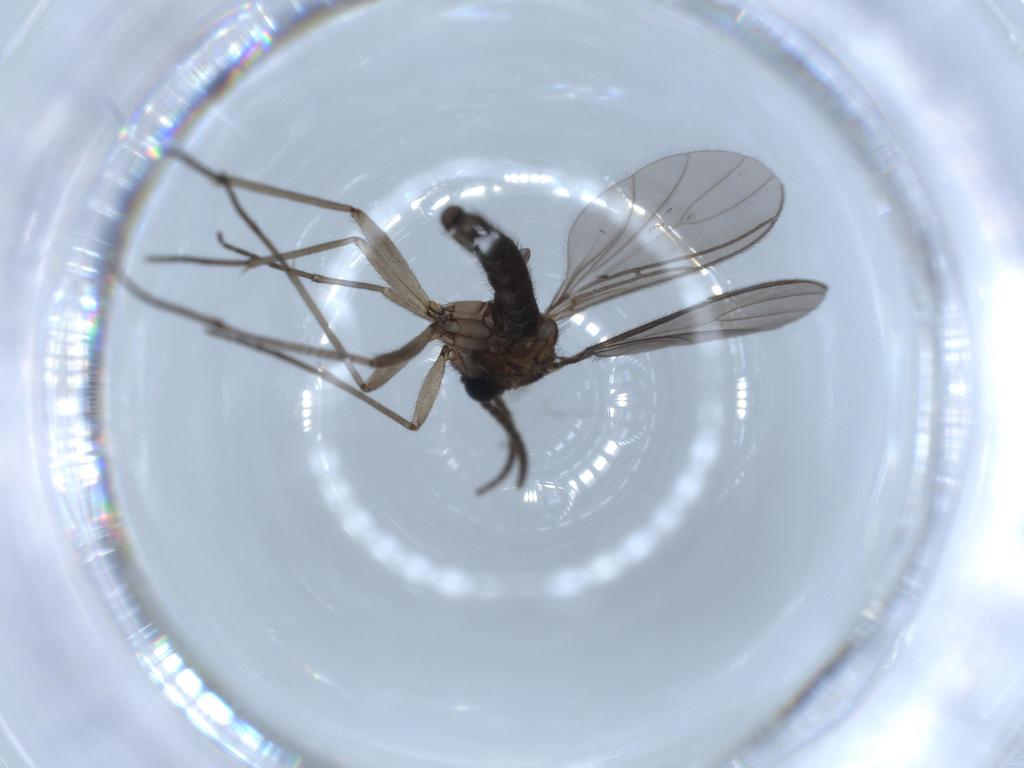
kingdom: Animalia
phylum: Arthropoda
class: Insecta
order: Diptera
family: Sciaridae
